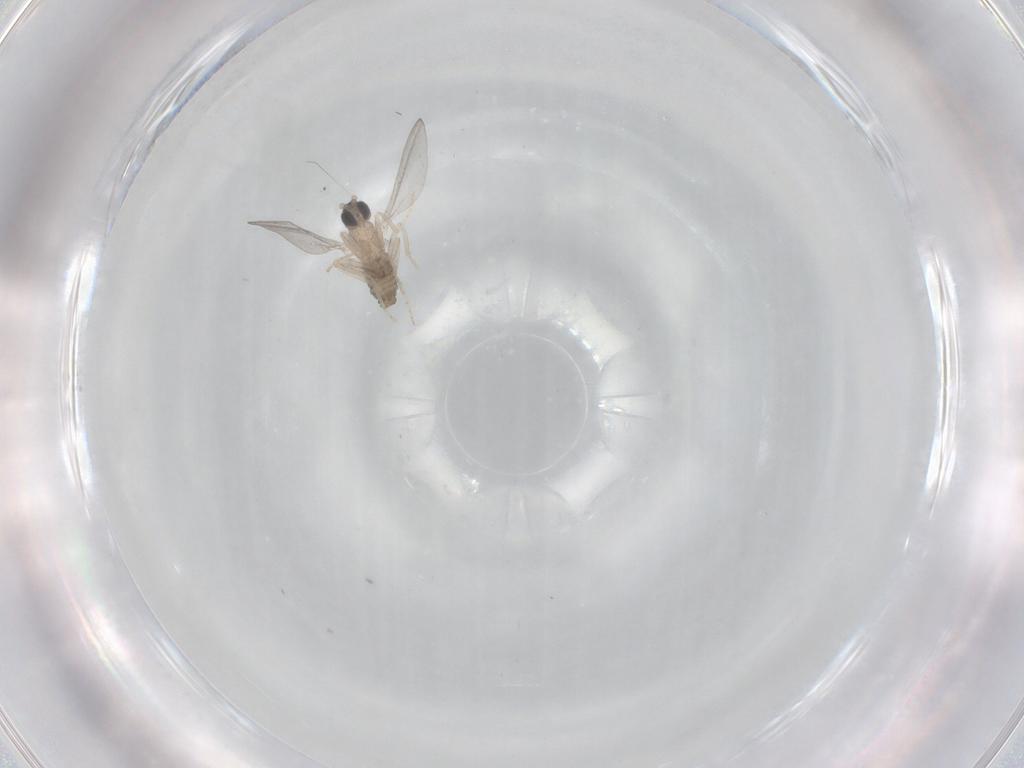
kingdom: Animalia
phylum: Arthropoda
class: Insecta
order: Diptera
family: Cecidomyiidae
